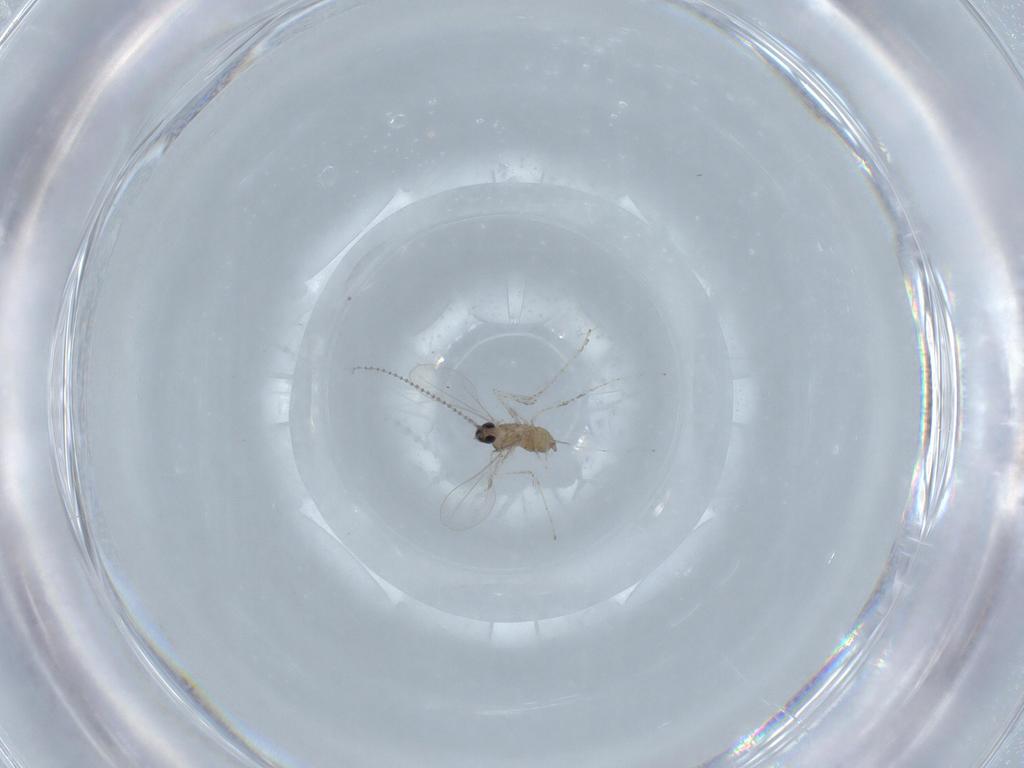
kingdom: Animalia
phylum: Arthropoda
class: Insecta
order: Diptera
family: Cecidomyiidae
